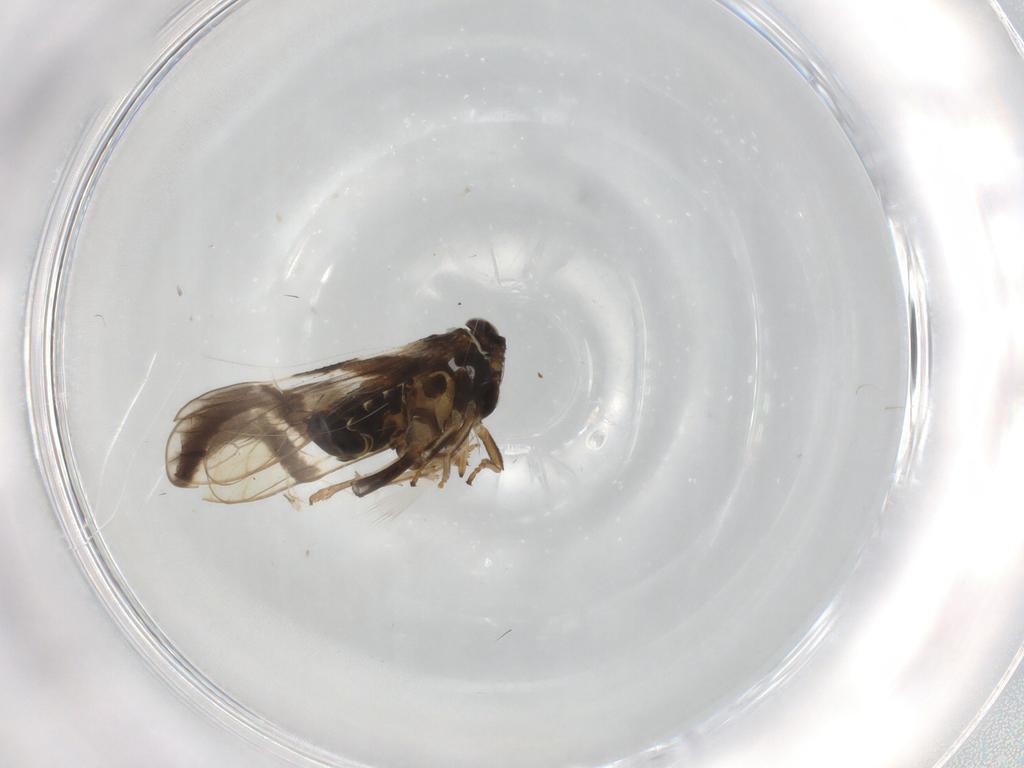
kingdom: Animalia
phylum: Arthropoda
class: Insecta
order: Hemiptera
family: Delphacidae
